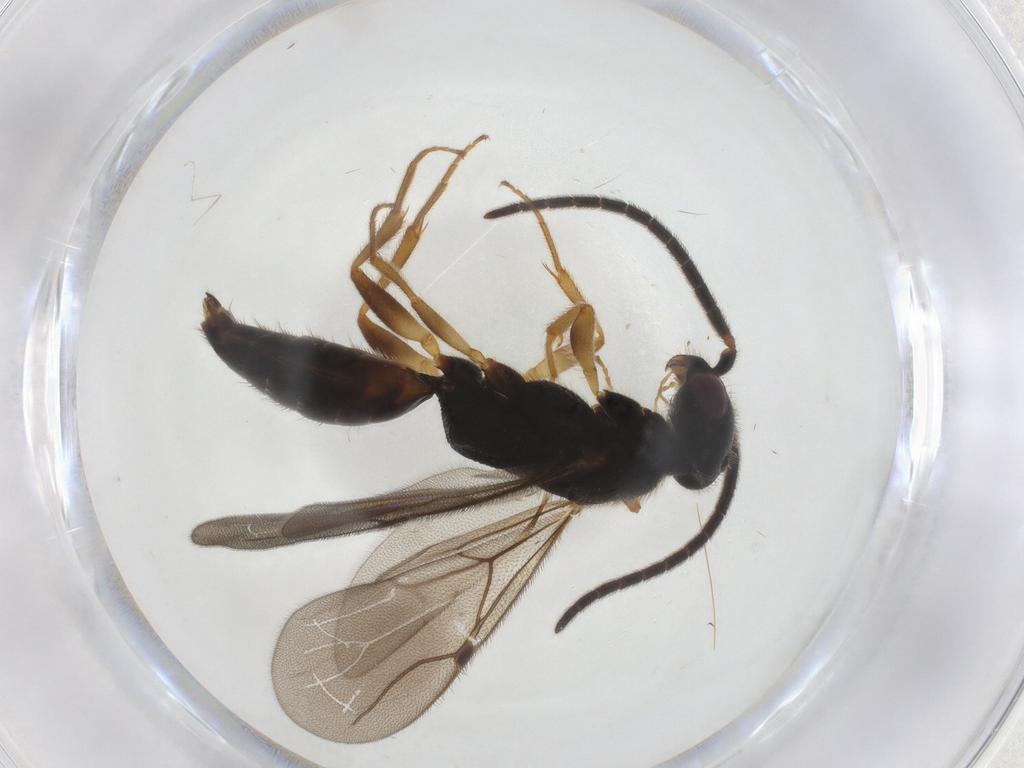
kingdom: Animalia
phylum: Arthropoda
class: Insecta
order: Hymenoptera
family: Bethylidae
